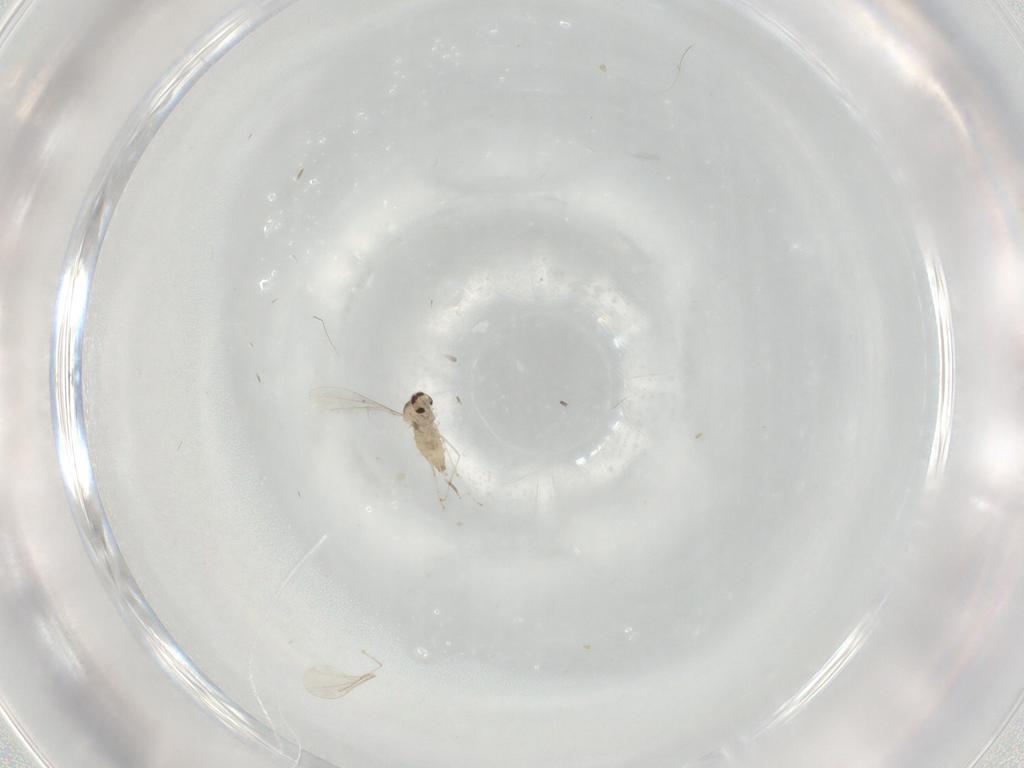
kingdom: Animalia
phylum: Arthropoda
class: Insecta
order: Diptera
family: Cecidomyiidae
